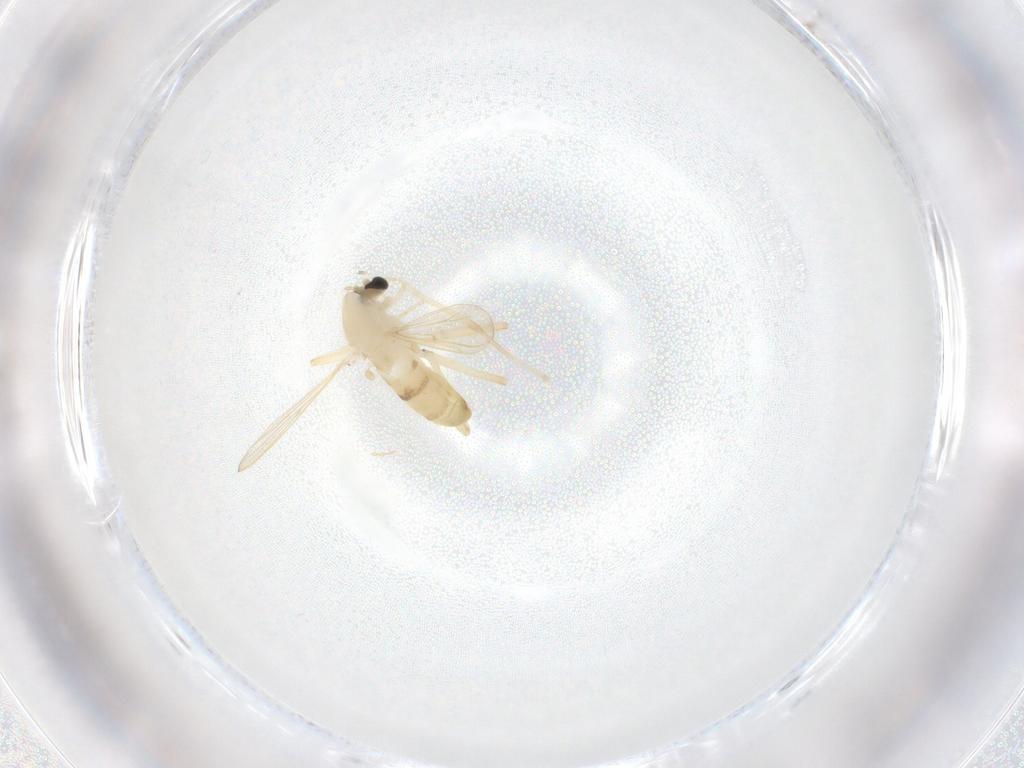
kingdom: Animalia
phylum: Arthropoda
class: Insecta
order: Diptera
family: Chironomidae
